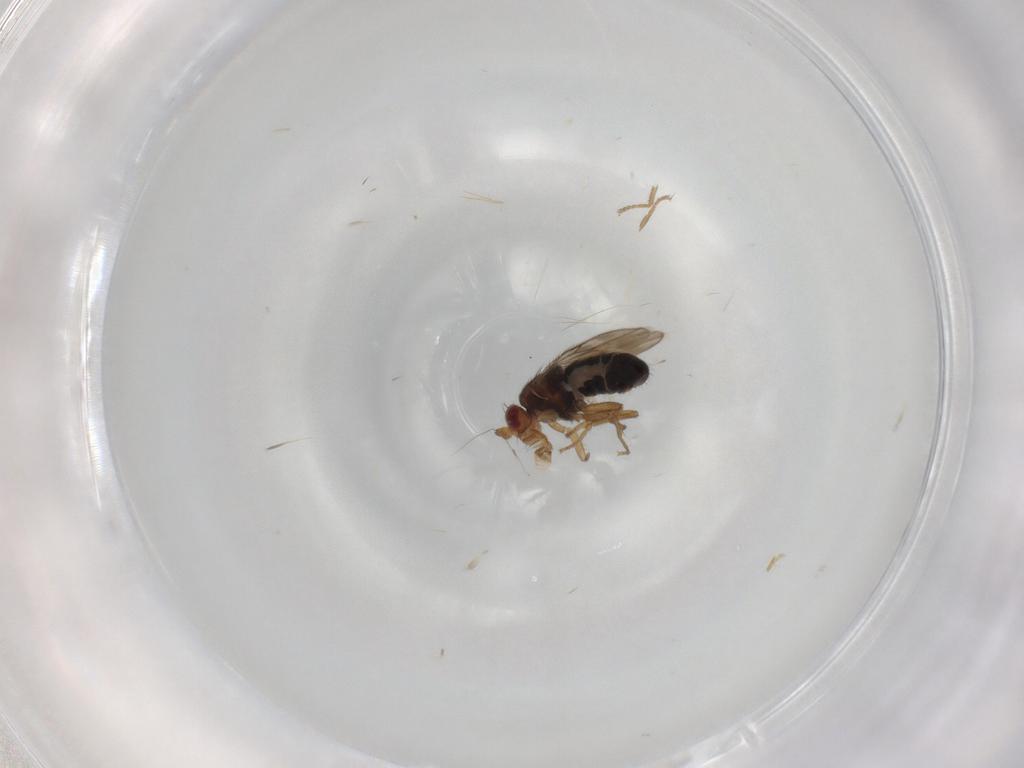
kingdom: Animalia
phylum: Arthropoda
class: Insecta
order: Diptera
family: Sphaeroceridae
